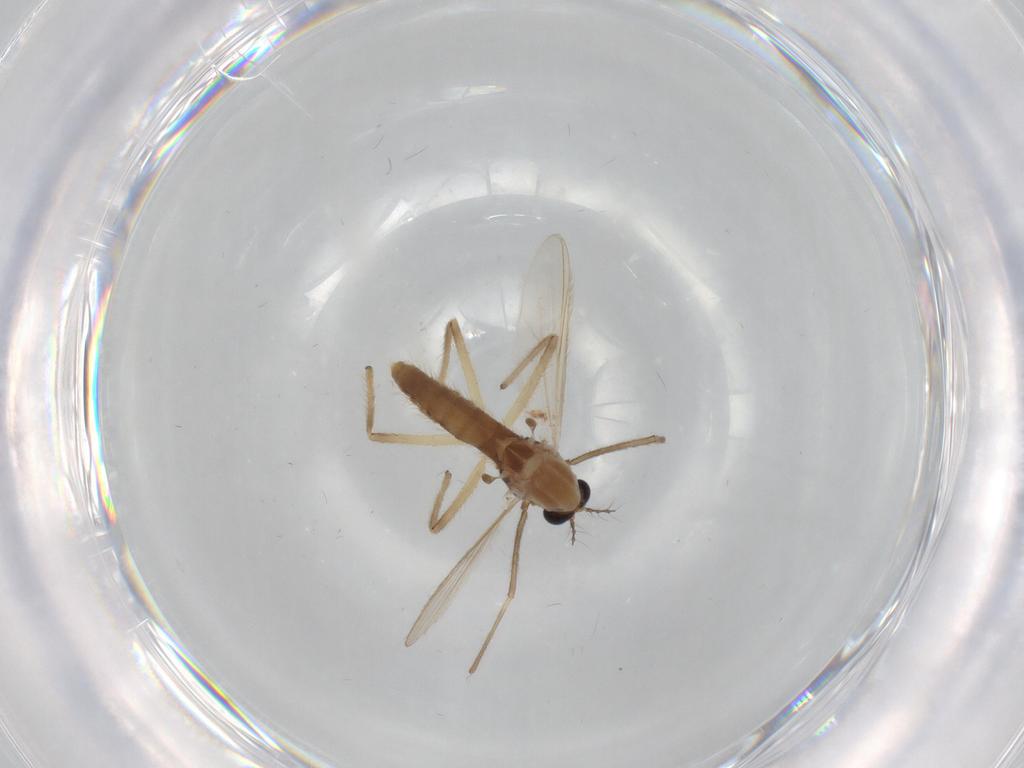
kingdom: Animalia
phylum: Arthropoda
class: Insecta
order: Diptera
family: Chironomidae
